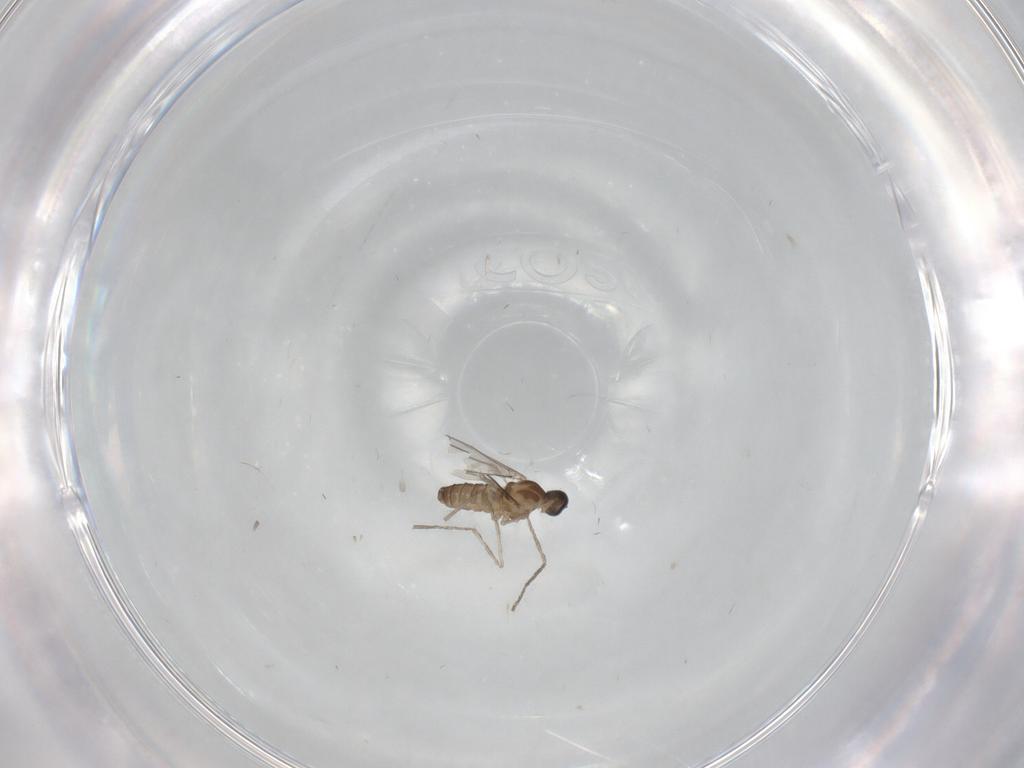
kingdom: Animalia
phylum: Arthropoda
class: Insecta
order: Diptera
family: Cecidomyiidae
